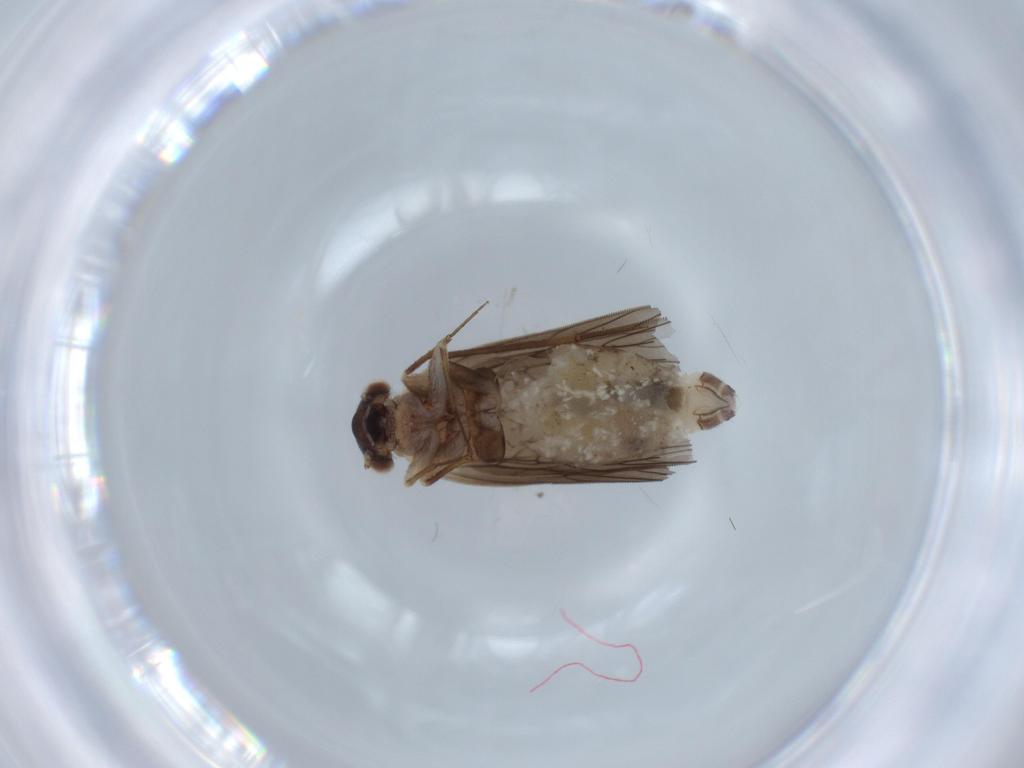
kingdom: Animalia
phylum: Arthropoda
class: Insecta
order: Psocodea
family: Lepidopsocidae
